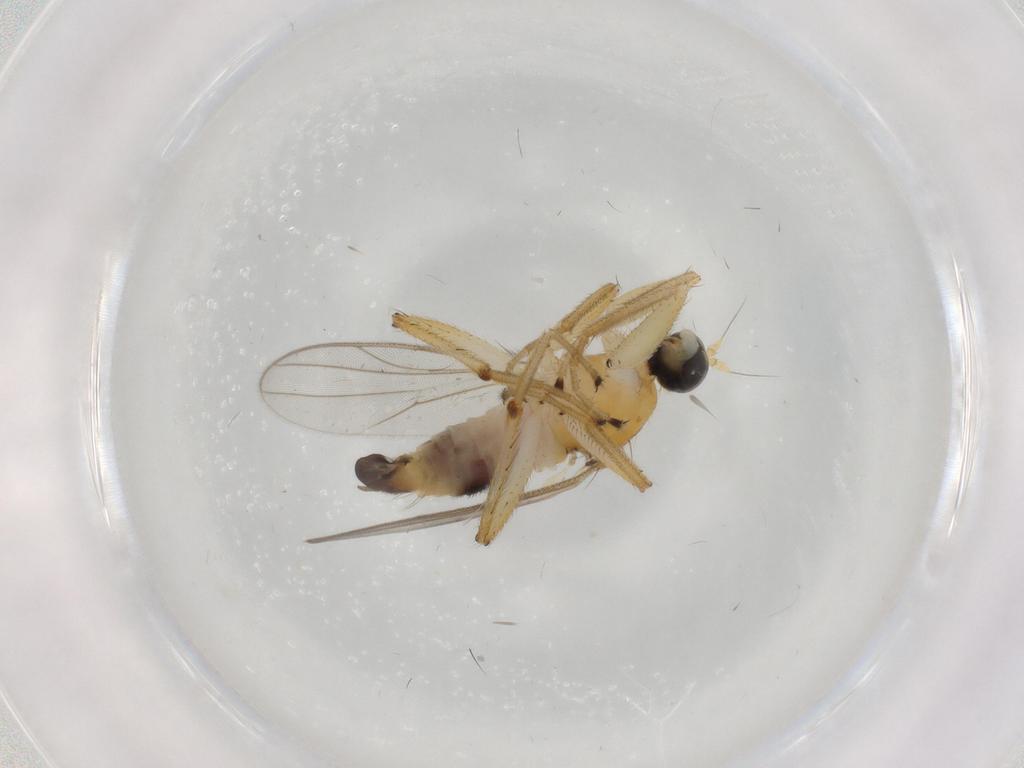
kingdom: Animalia
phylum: Arthropoda
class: Insecta
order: Diptera
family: Hybotidae
